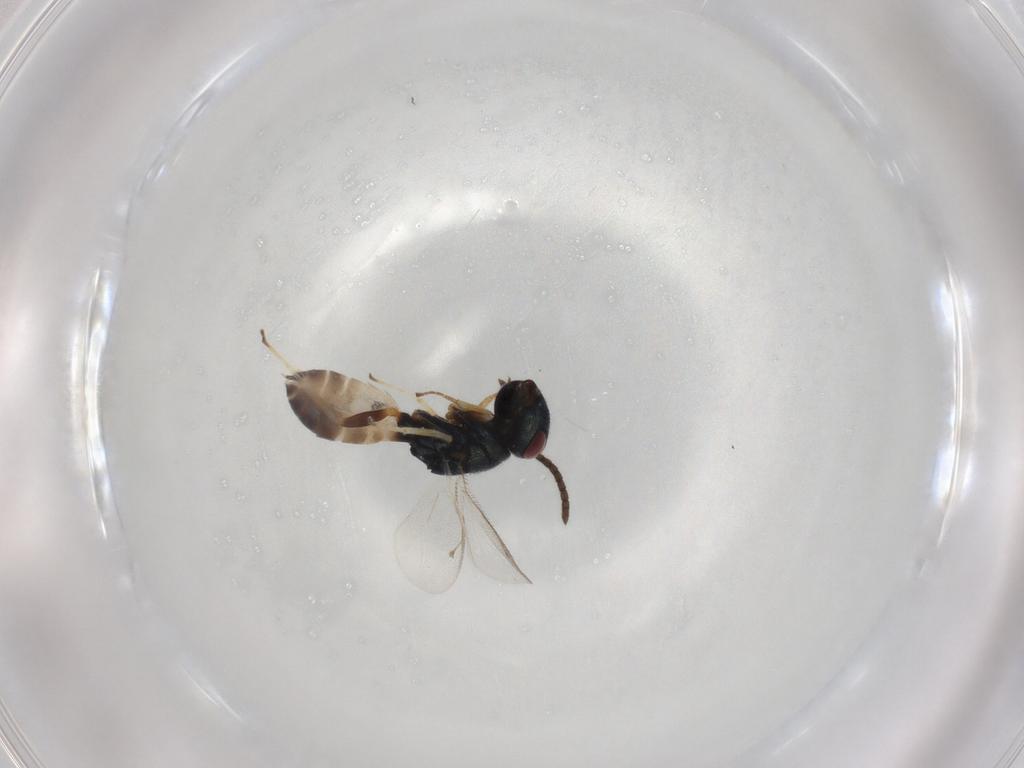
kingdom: Animalia
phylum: Arthropoda
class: Insecta
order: Hymenoptera
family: Pteromalidae
